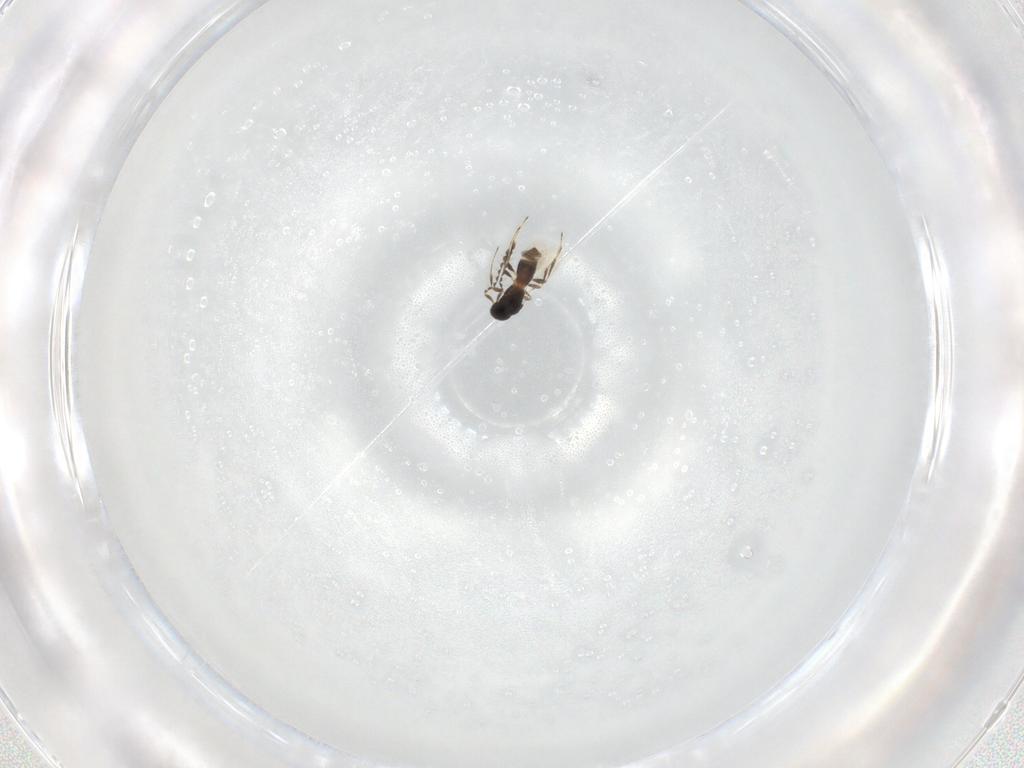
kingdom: Animalia
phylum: Arthropoda
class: Insecta
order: Hymenoptera
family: Platygastridae
